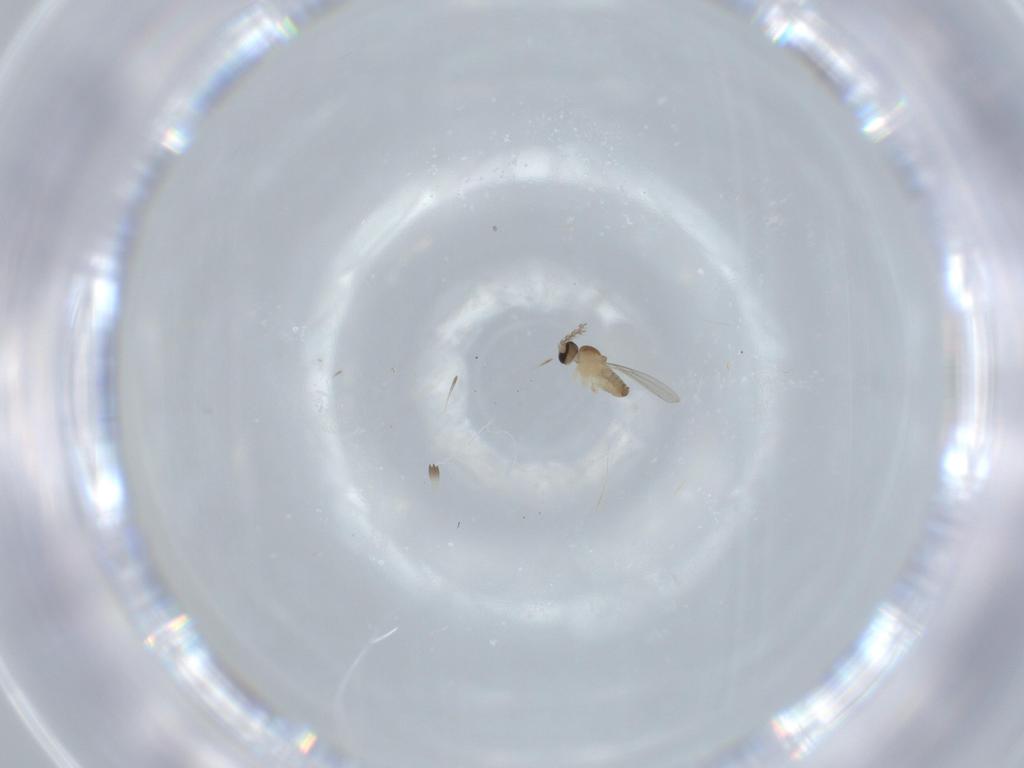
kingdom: Animalia
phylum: Arthropoda
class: Insecta
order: Diptera
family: Cecidomyiidae
